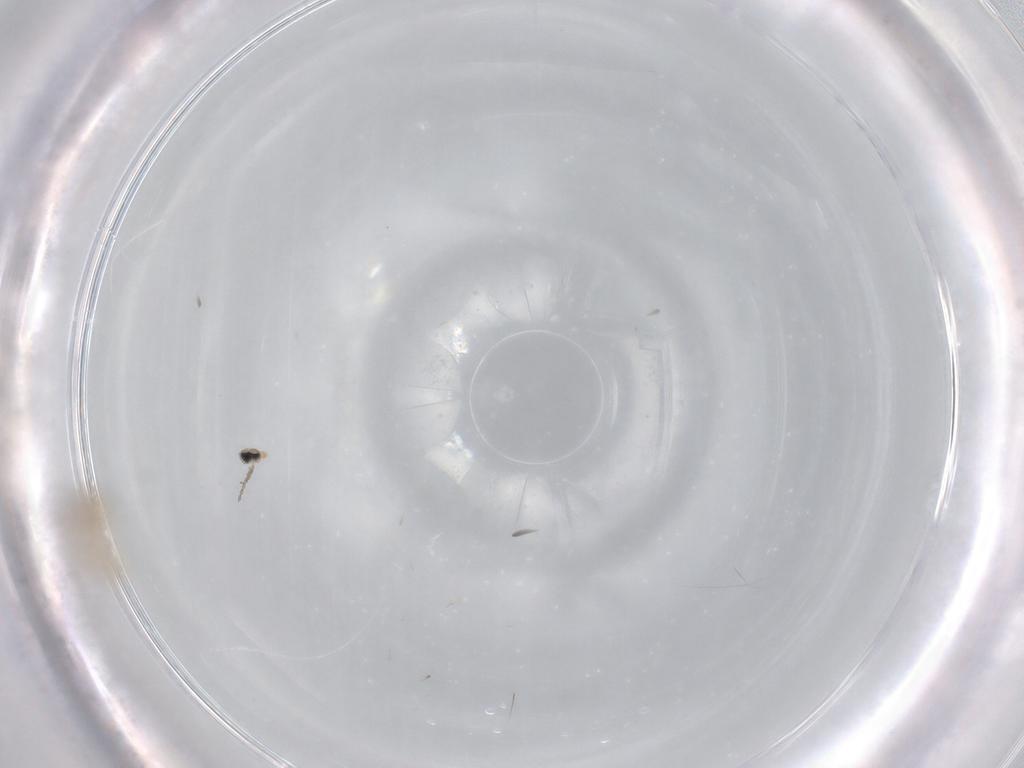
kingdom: Animalia
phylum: Arthropoda
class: Insecta
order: Diptera
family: Cecidomyiidae
